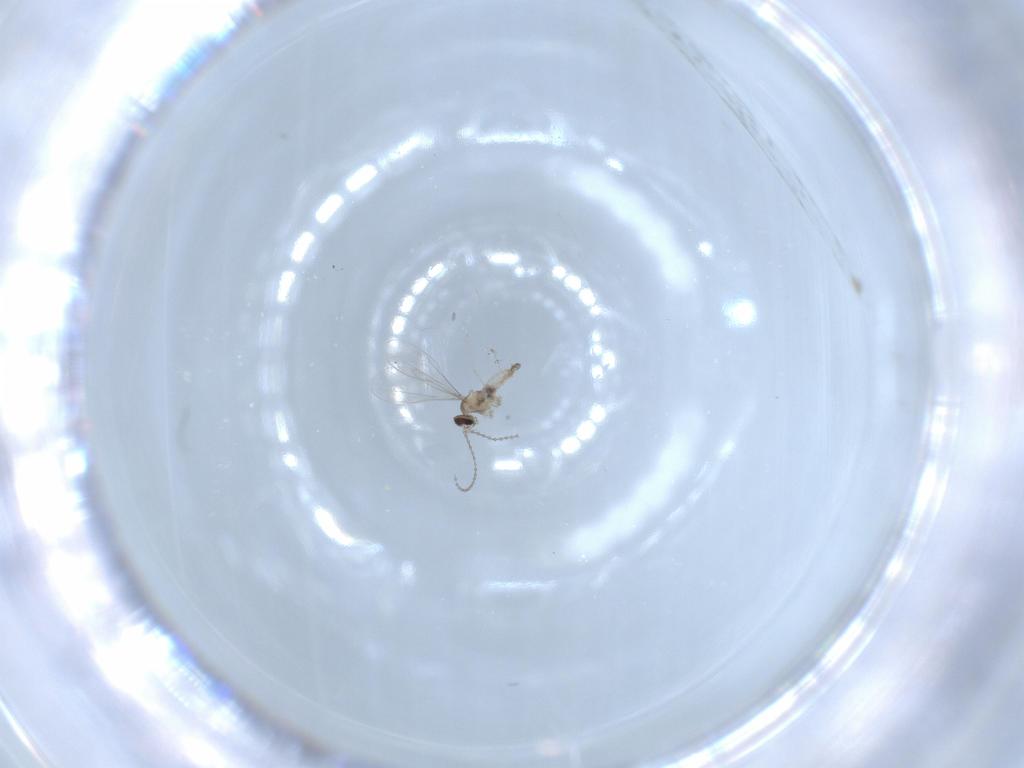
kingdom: Animalia
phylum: Arthropoda
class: Insecta
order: Diptera
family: Cecidomyiidae
